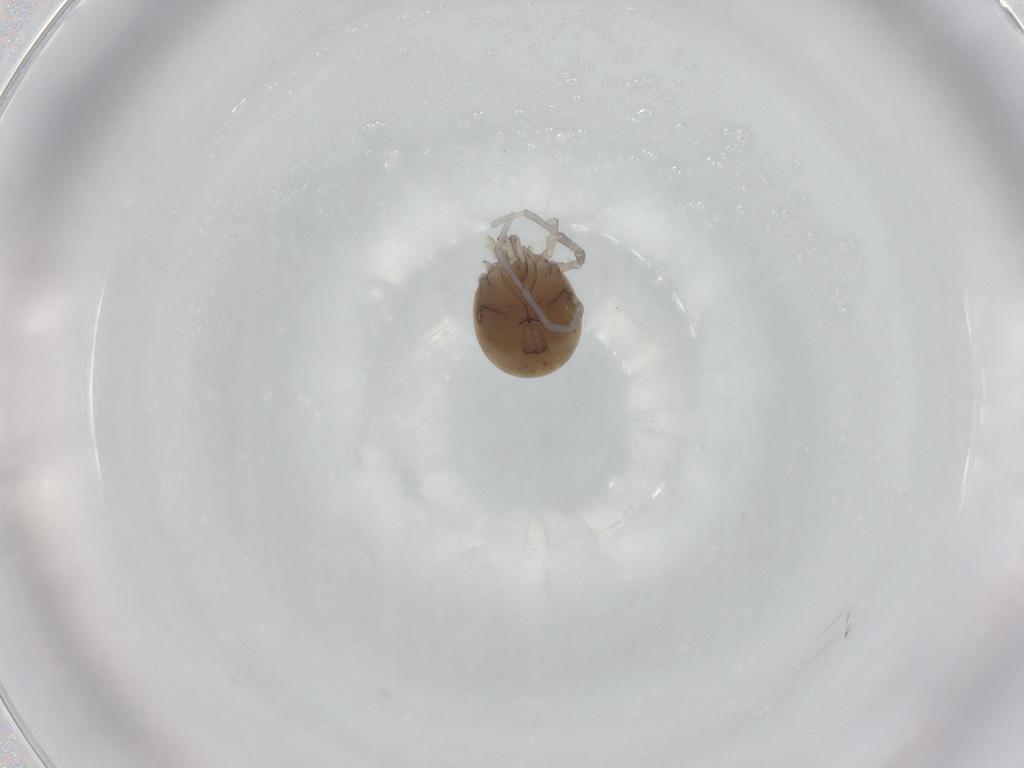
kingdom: Animalia
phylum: Arthropoda
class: Arachnida
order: Trombidiformes
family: Lebertiidae
